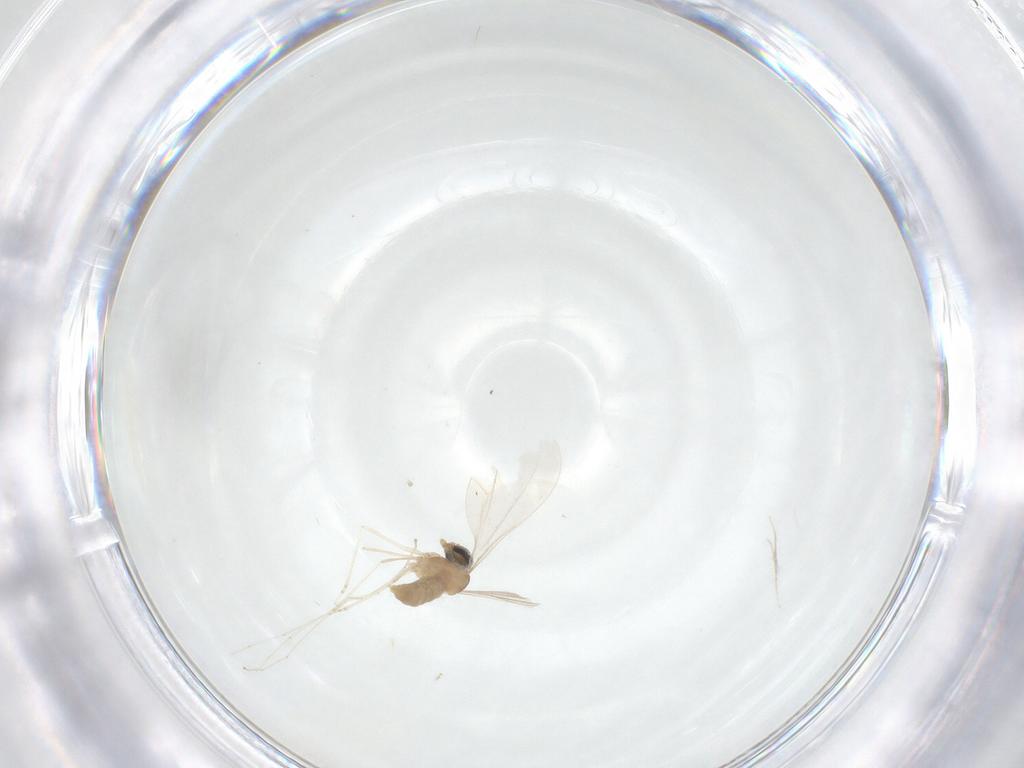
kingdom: Animalia
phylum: Arthropoda
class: Insecta
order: Diptera
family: Cecidomyiidae
